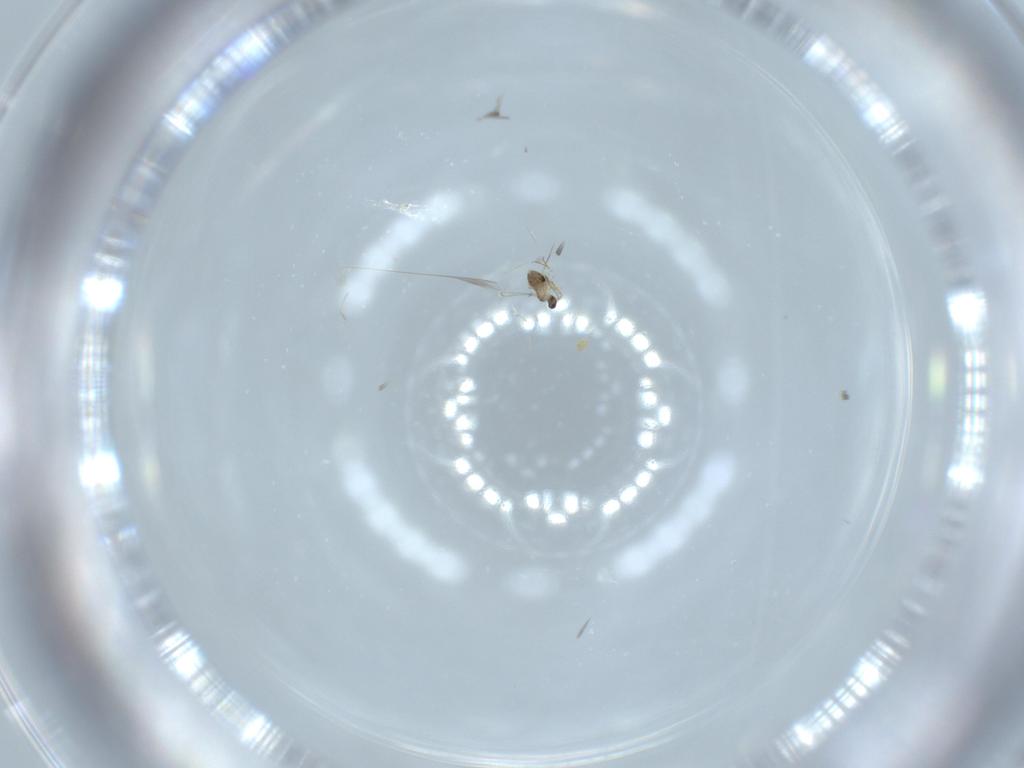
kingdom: Animalia
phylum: Arthropoda
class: Insecta
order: Hymenoptera
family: Mymaridae
